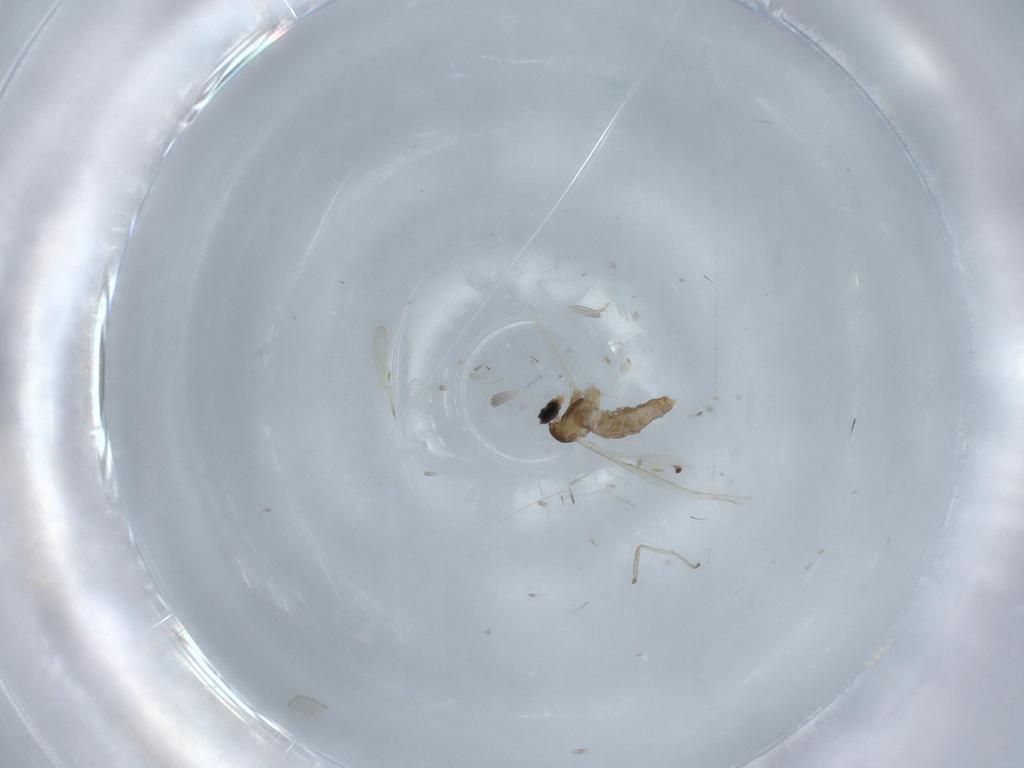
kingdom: Animalia
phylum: Arthropoda
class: Insecta
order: Diptera
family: Cecidomyiidae
